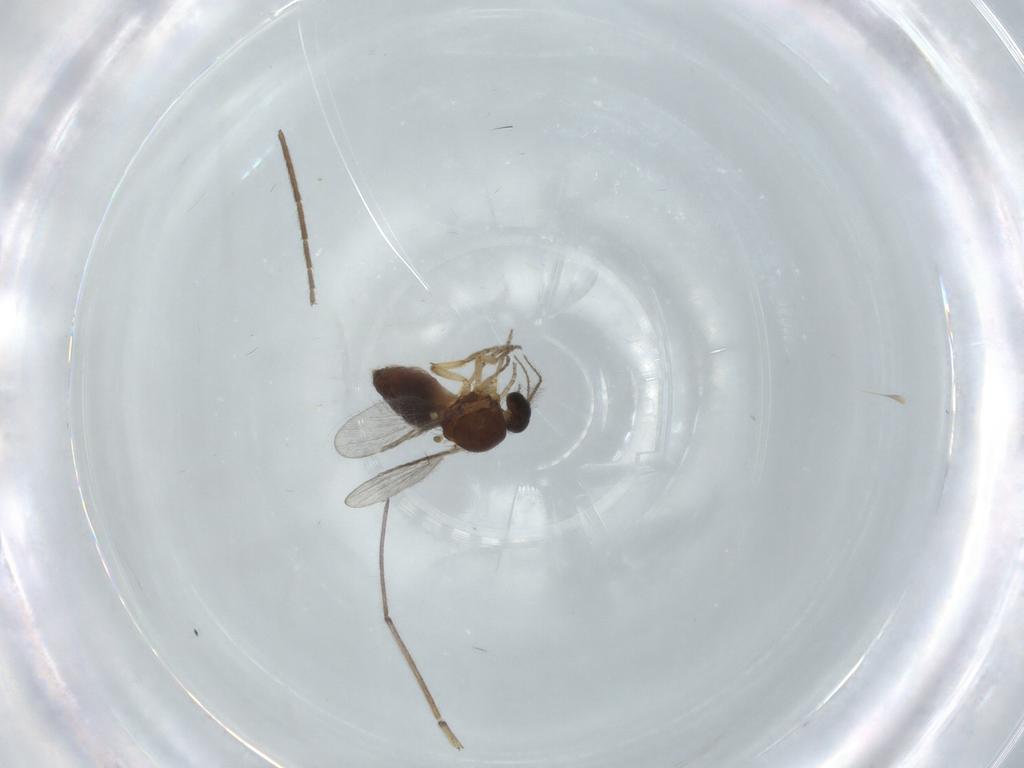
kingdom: Animalia
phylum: Arthropoda
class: Insecta
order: Diptera
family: Ceratopogonidae
